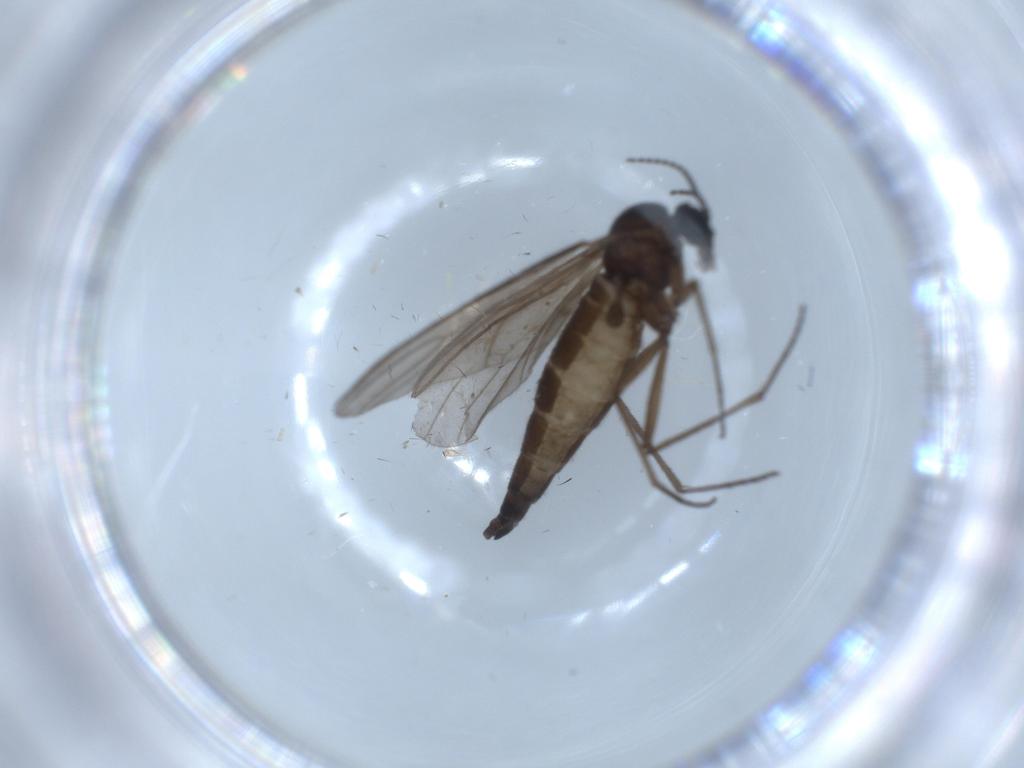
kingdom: Animalia
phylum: Arthropoda
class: Insecta
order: Diptera
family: Sciaridae
